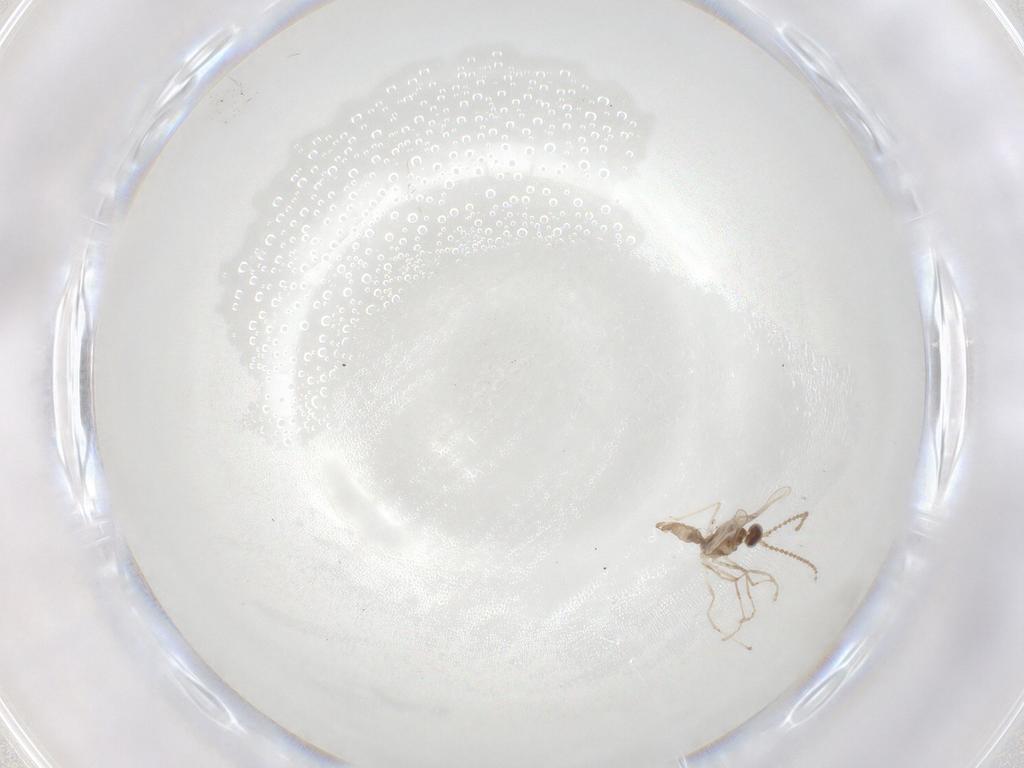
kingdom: Animalia
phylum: Arthropoda
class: Insecta
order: Diptera
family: Cecidomyiidae
